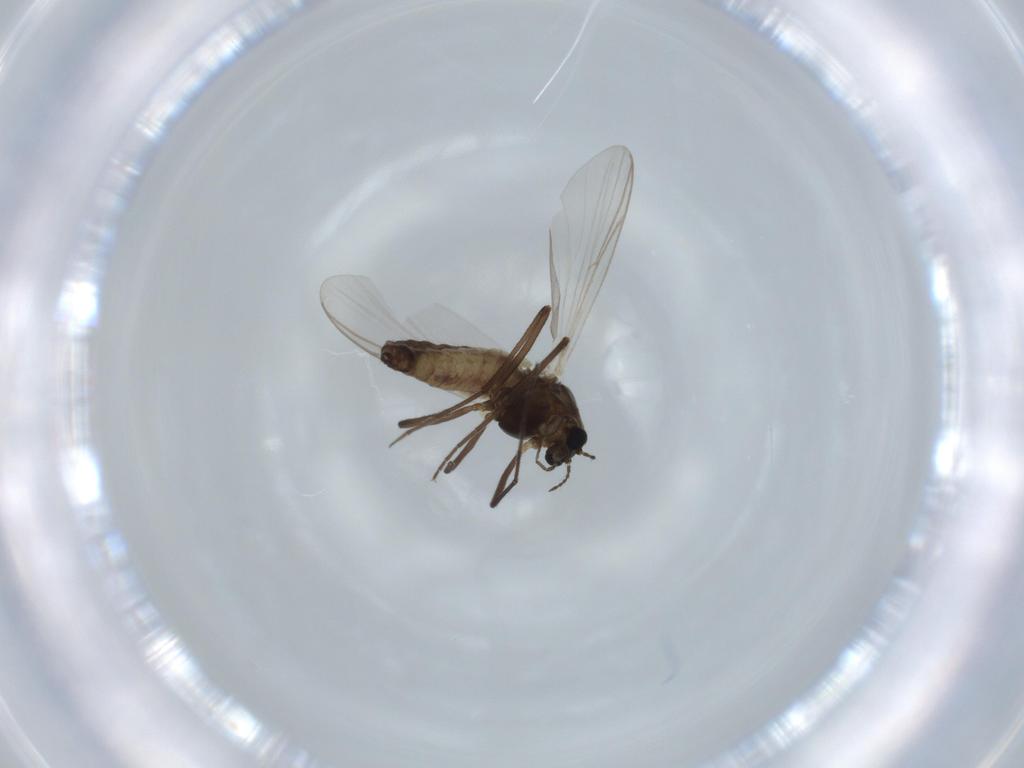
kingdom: Animalia
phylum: Arthropoda
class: Insecta
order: Diptera
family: Chironomidae
